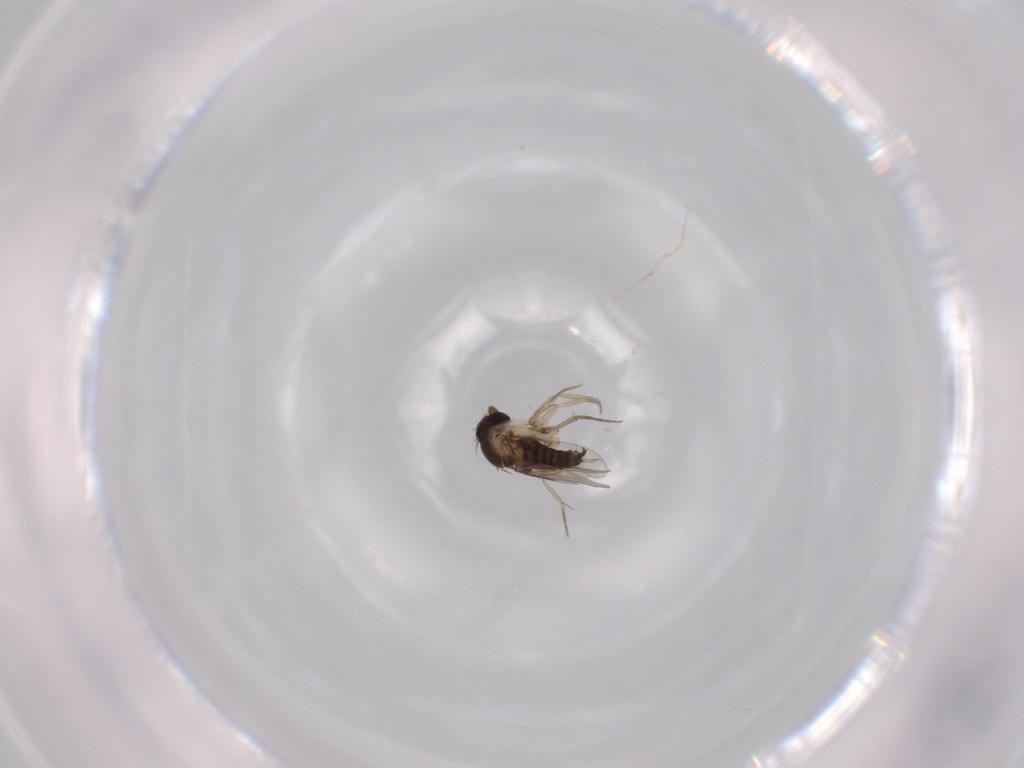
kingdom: Animalia
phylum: Arthropoda
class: Insecta
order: Diptera
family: Phoridae
